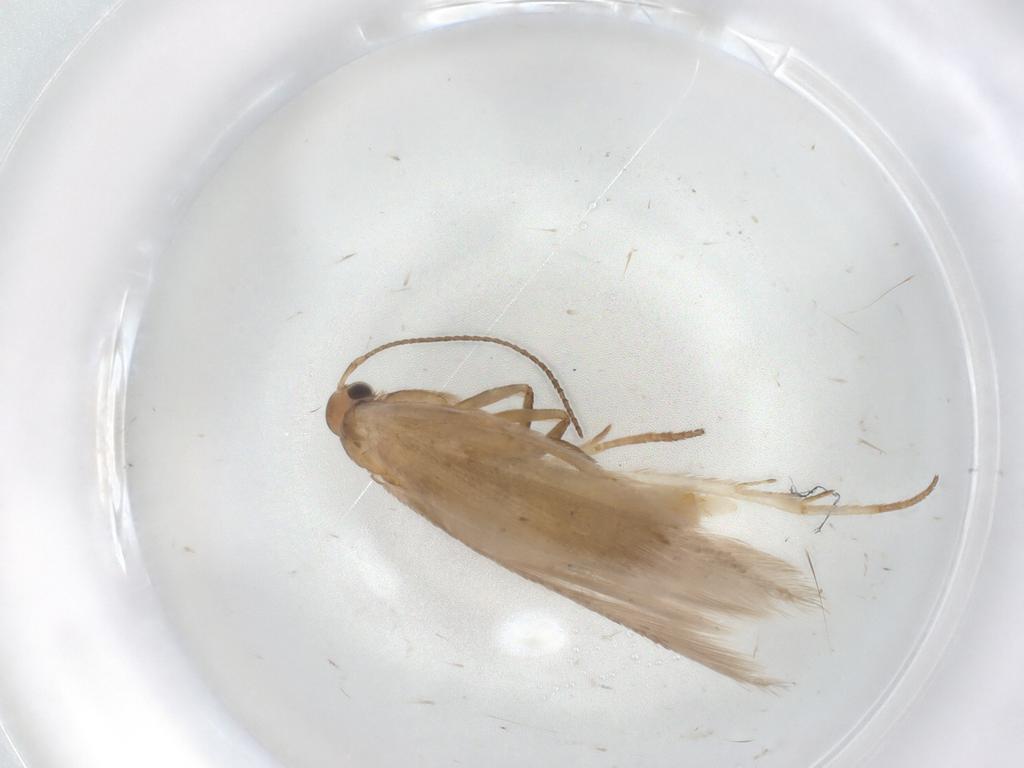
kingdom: Animalia
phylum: Arthropoda
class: Insecta
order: Lepidoptera
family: Gelechiidae
